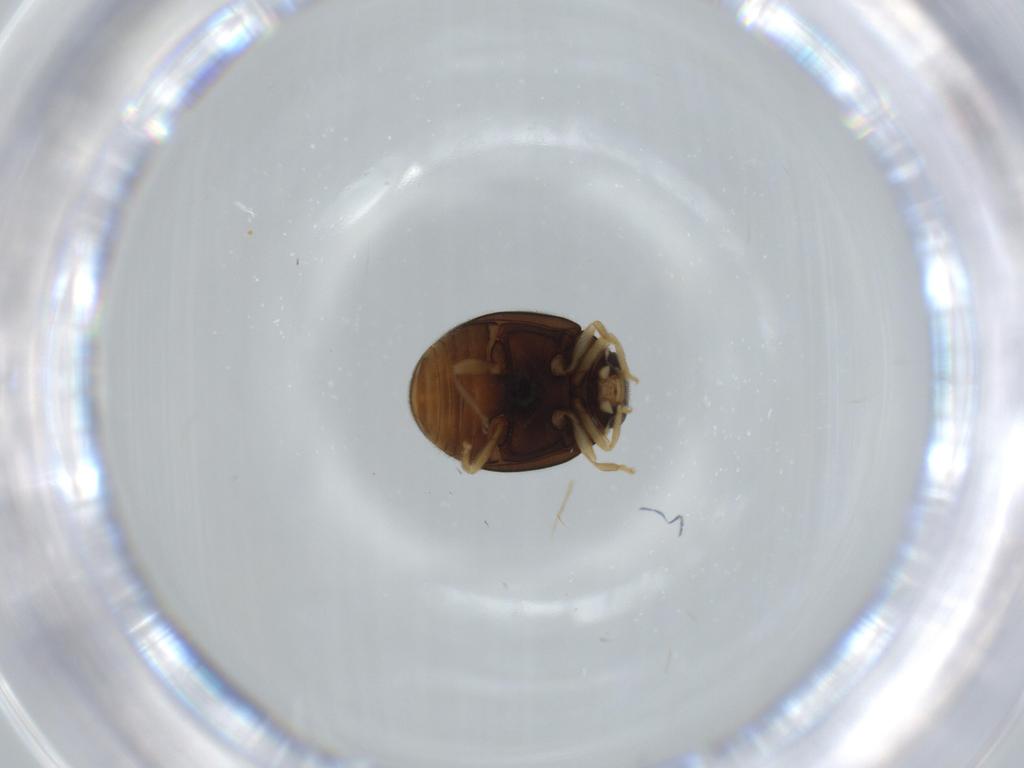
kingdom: Animalia
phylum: Arthropoda
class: Insecta
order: Coleoptera
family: Coccinellidae
